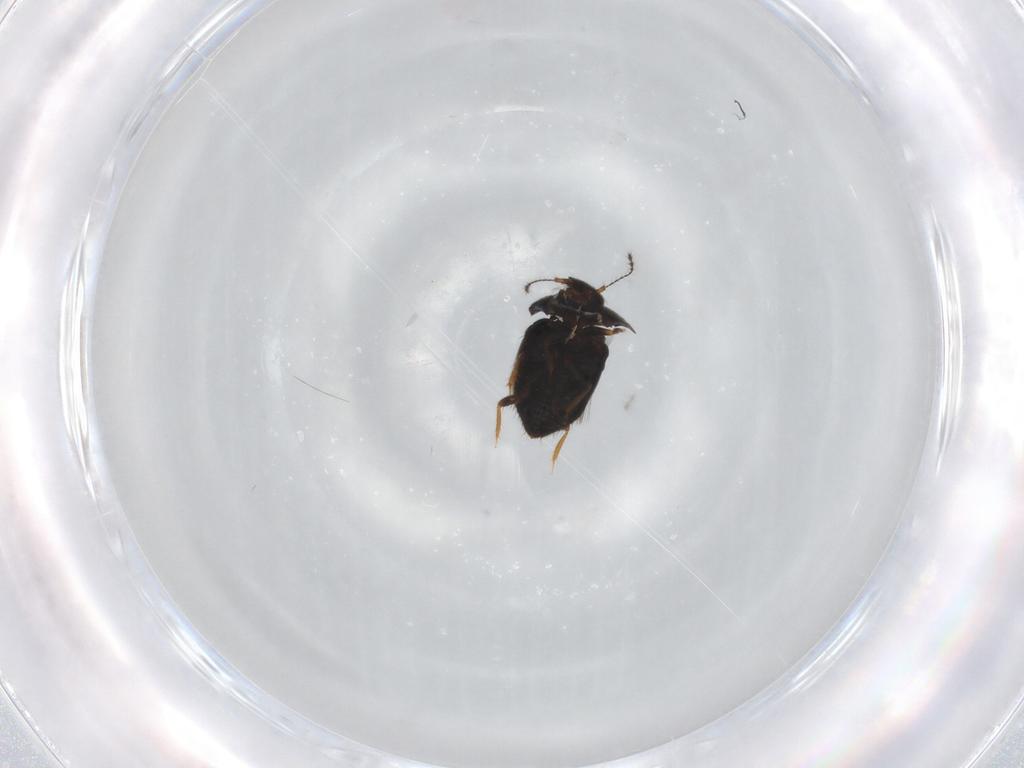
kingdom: Animalia
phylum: Arthropoda
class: Insecta
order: Coleoptera
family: Ptiliidae
